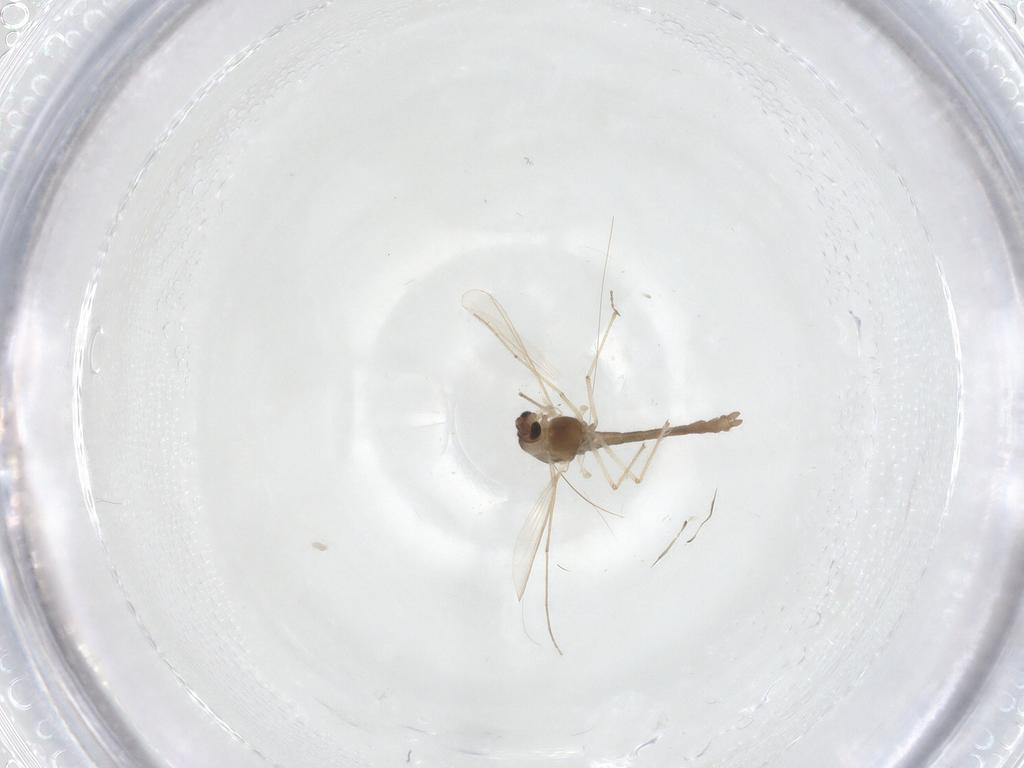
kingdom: Animalia
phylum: Arthropoda
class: Insecta
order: Diptera
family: Chironomidae
